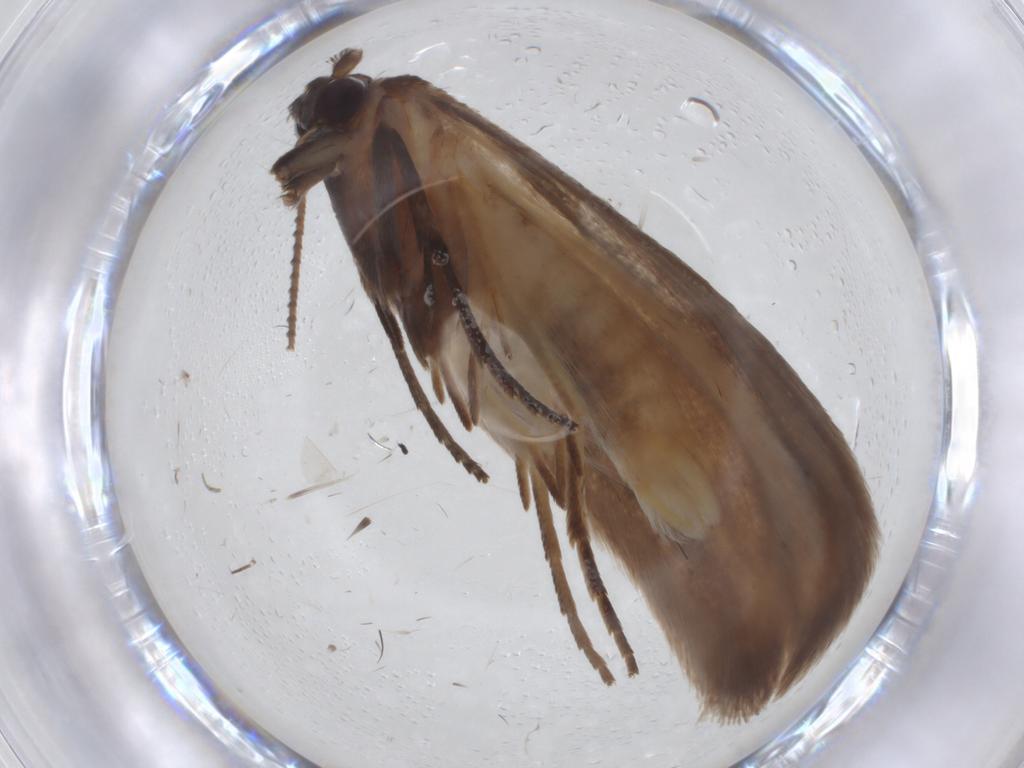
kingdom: Animalia
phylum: Arthropoda
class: Insecta
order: Lepidoptera
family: Roeslerstammiidae
